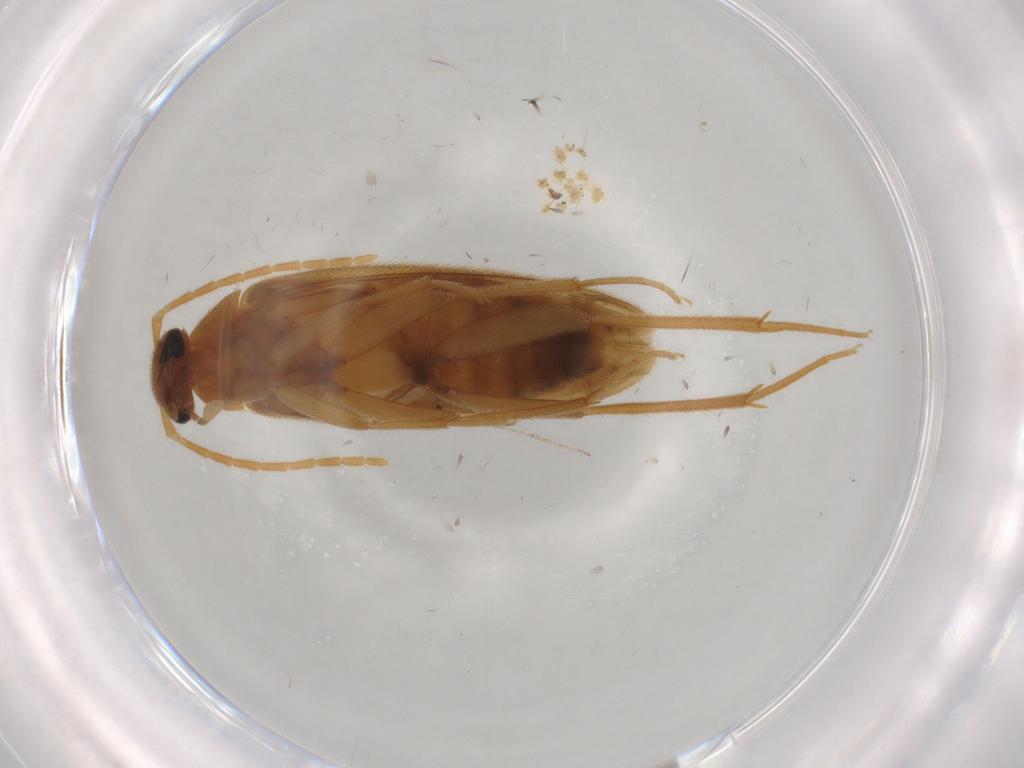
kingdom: Animalia
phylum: Arthropoda
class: Insecta
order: Coleoptera
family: Scraptiidae
